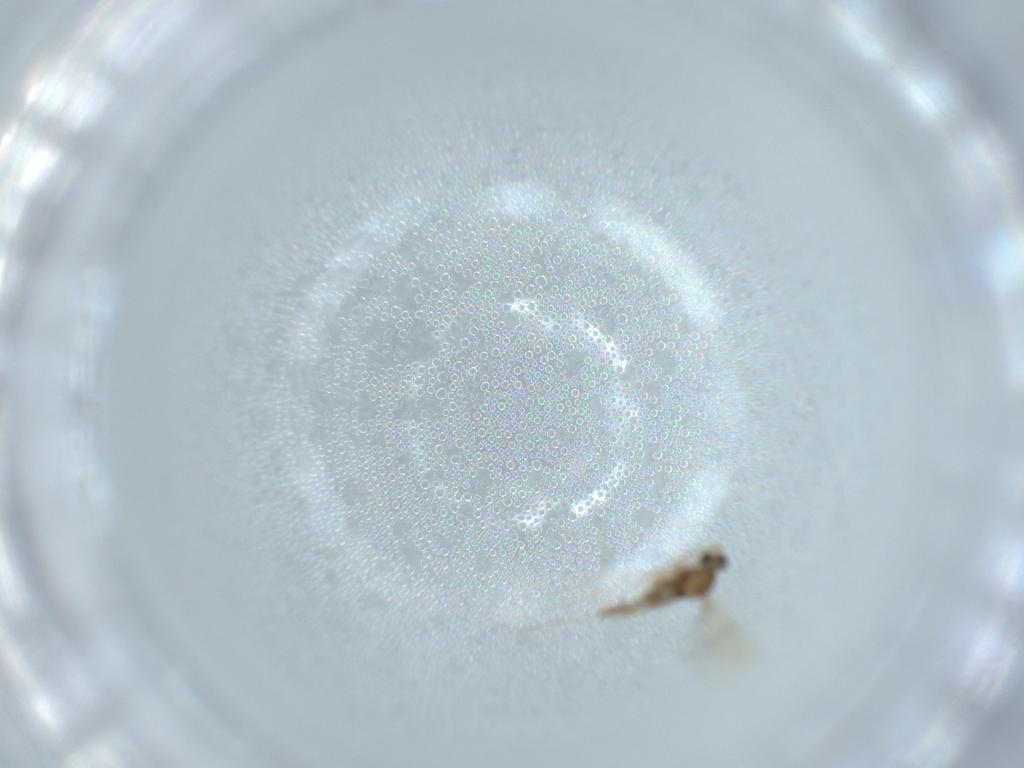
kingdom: Animalia
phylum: Arthropoda
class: Insecta
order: Diptera
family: Cecidomyiidae
